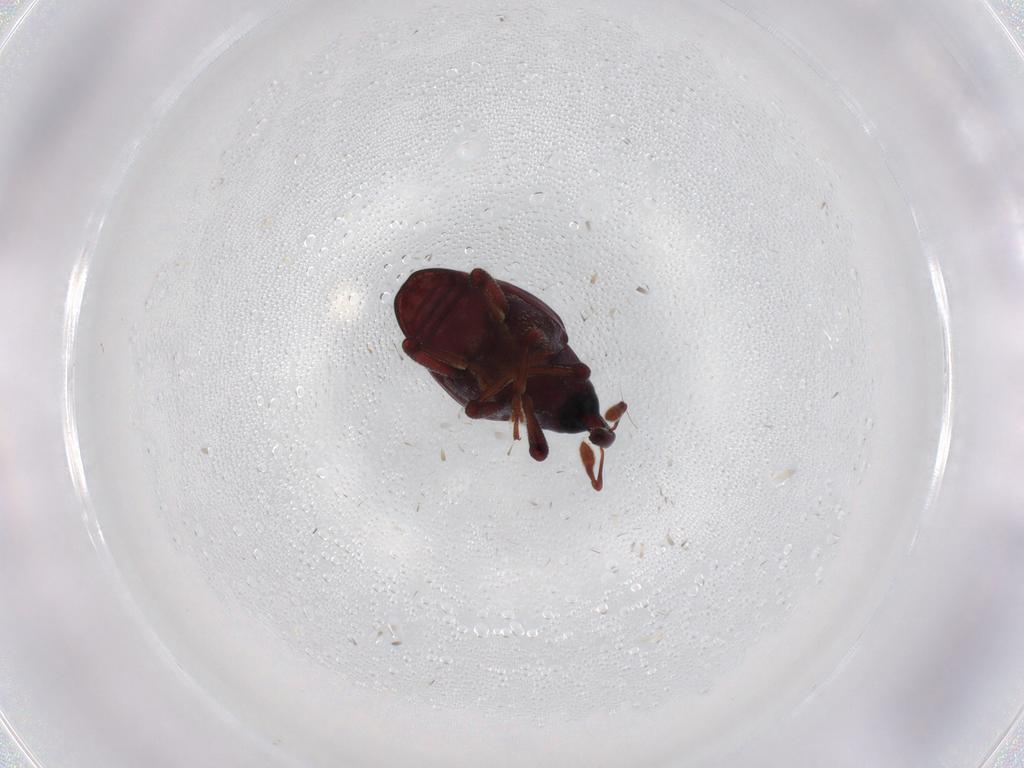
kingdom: Animalia
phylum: Arthropoda
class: Insecta
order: Coleoptera
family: Curculionidae
